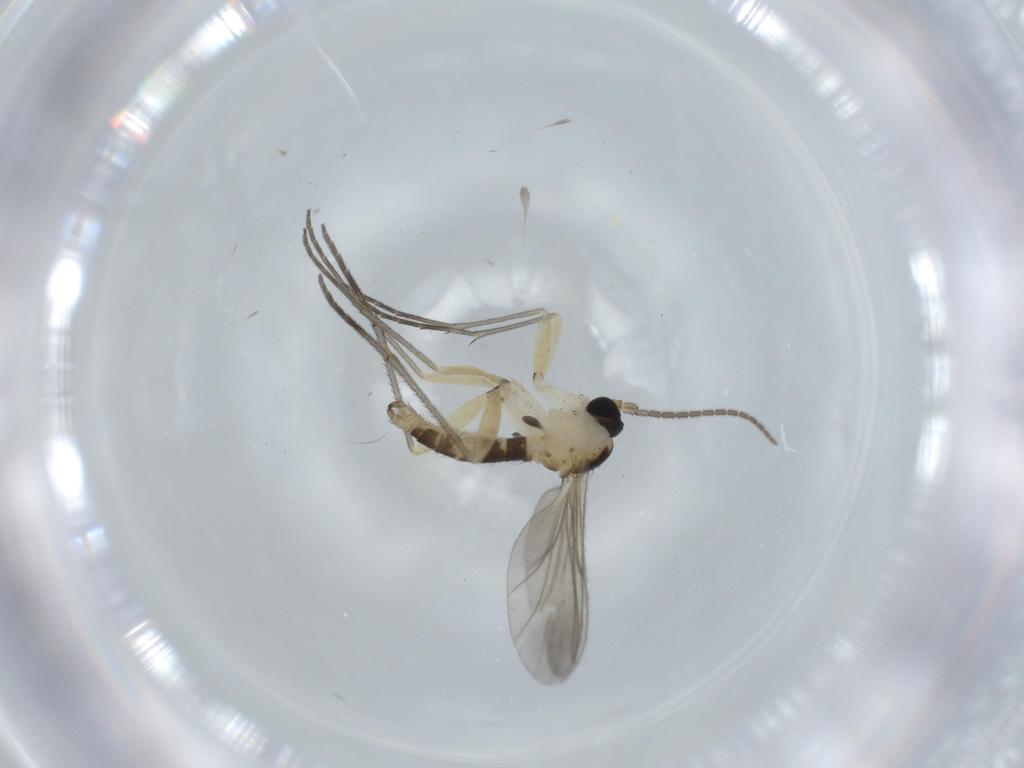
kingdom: Animalia
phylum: Arthropoda
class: Insecta
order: Diptera
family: Sciaridae
